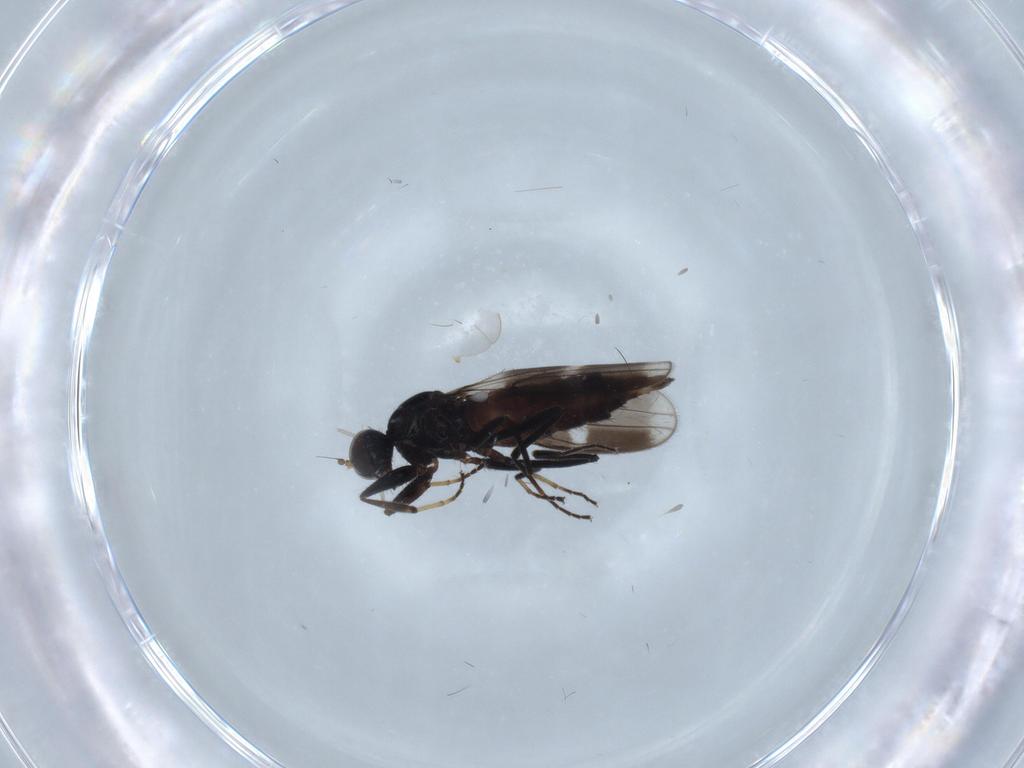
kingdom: Animalia
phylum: Arthropoda
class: Insecta
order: Diptera
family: Hybotidae
